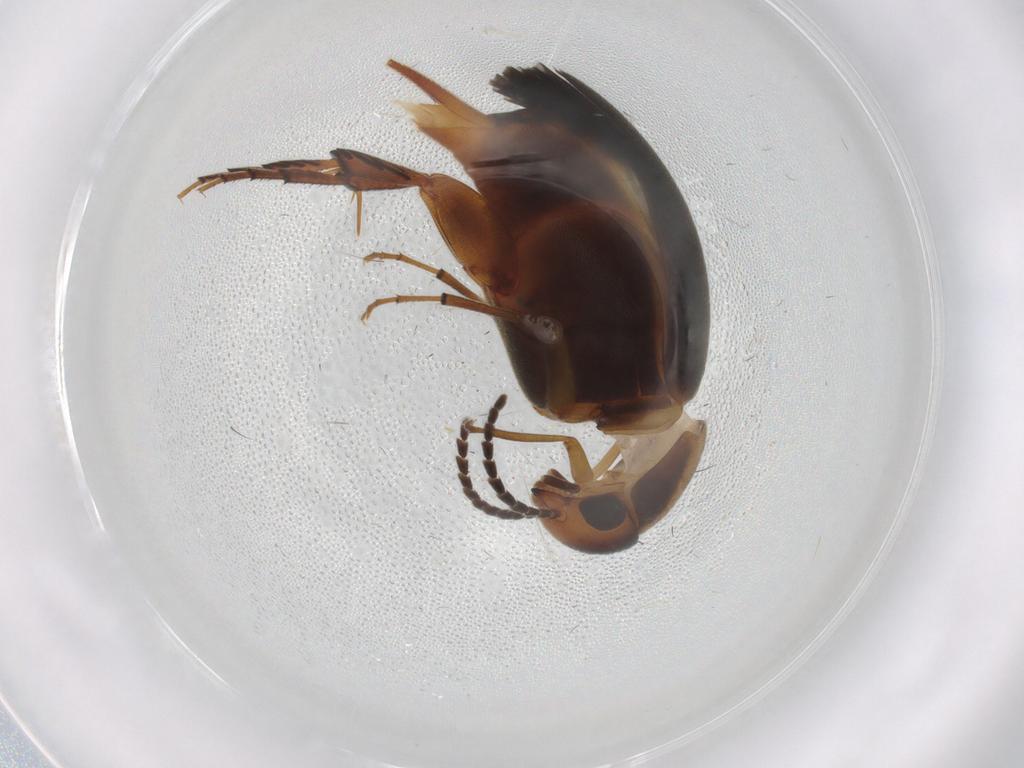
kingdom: Animalia
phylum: Arthropoda
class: Insecta
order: Coleoptera
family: Mordellidae
